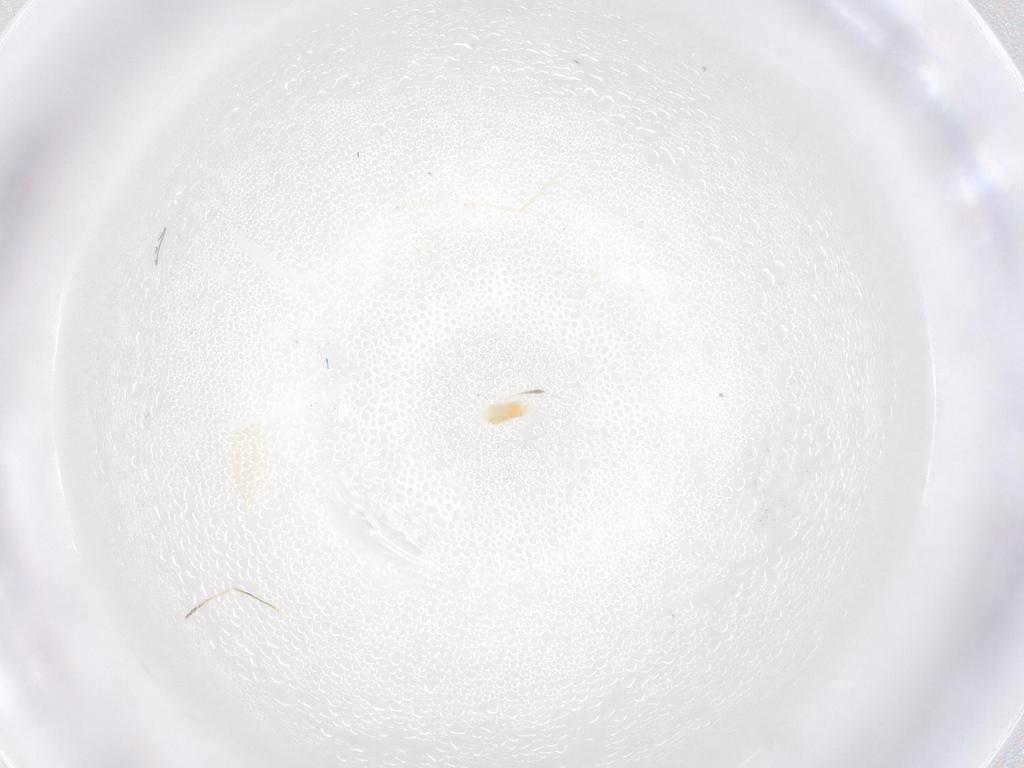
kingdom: Animalia
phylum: Arthropoda
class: Arachnida
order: Trombidiformes
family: Eupodidae
